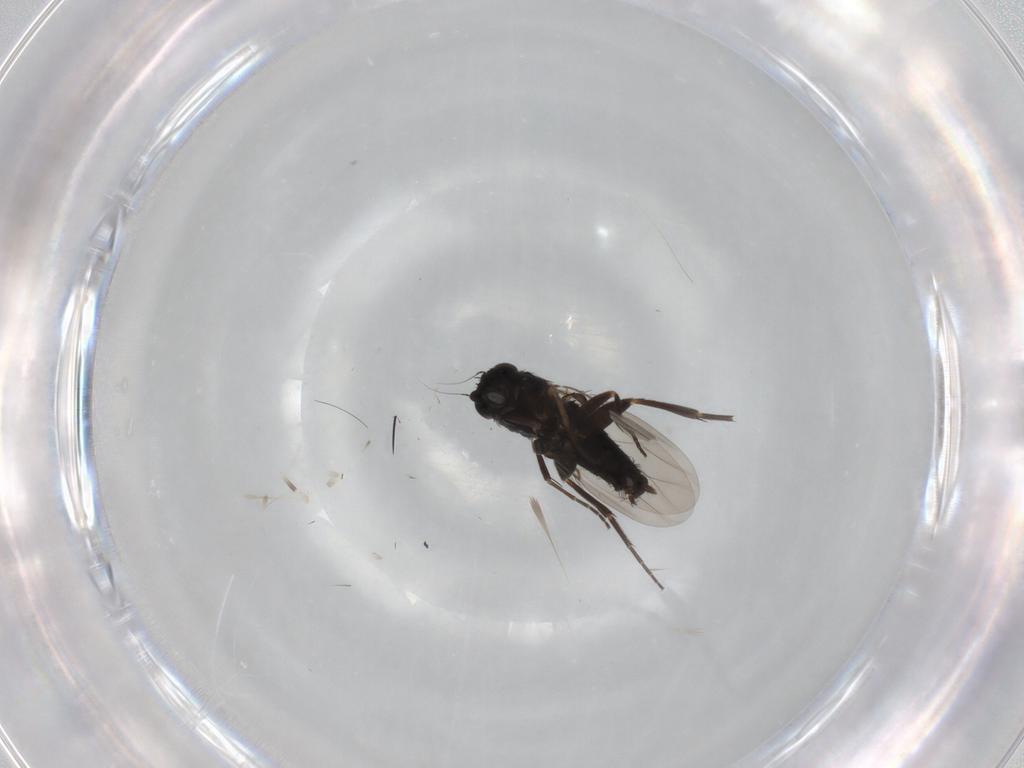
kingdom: Animalia
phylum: Arthropoda
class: Insecta
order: Diptera
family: Phoridae
